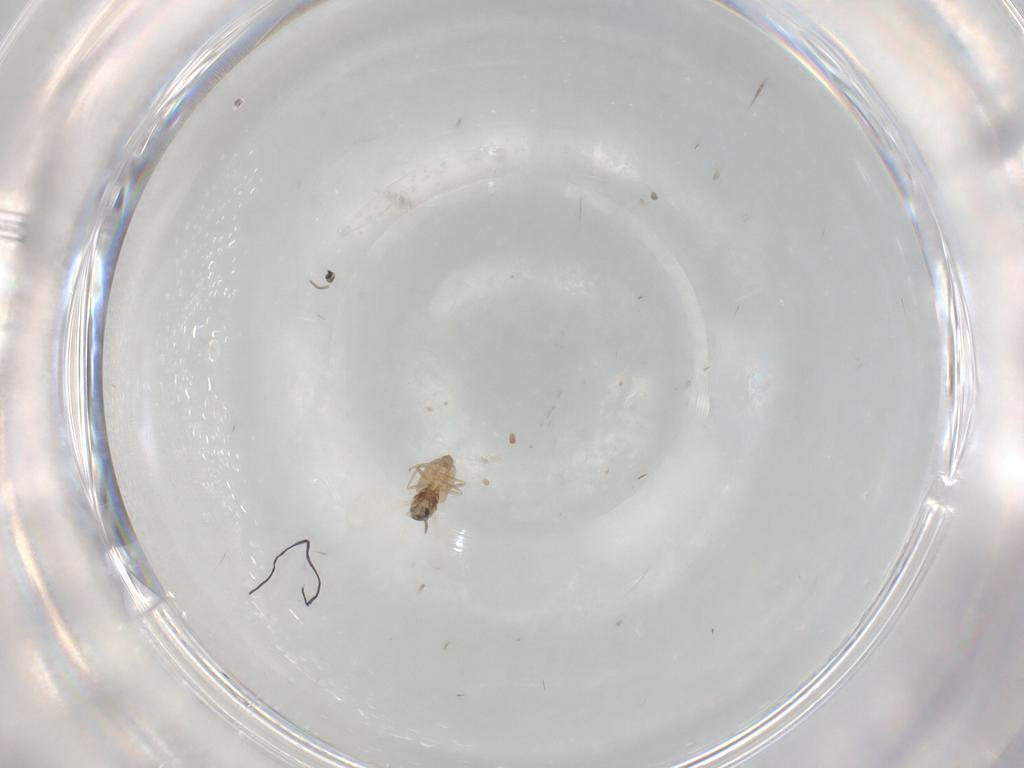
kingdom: Animalia
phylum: Arthropoda
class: Insecta
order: Diptera
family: Cecidomyiidae
